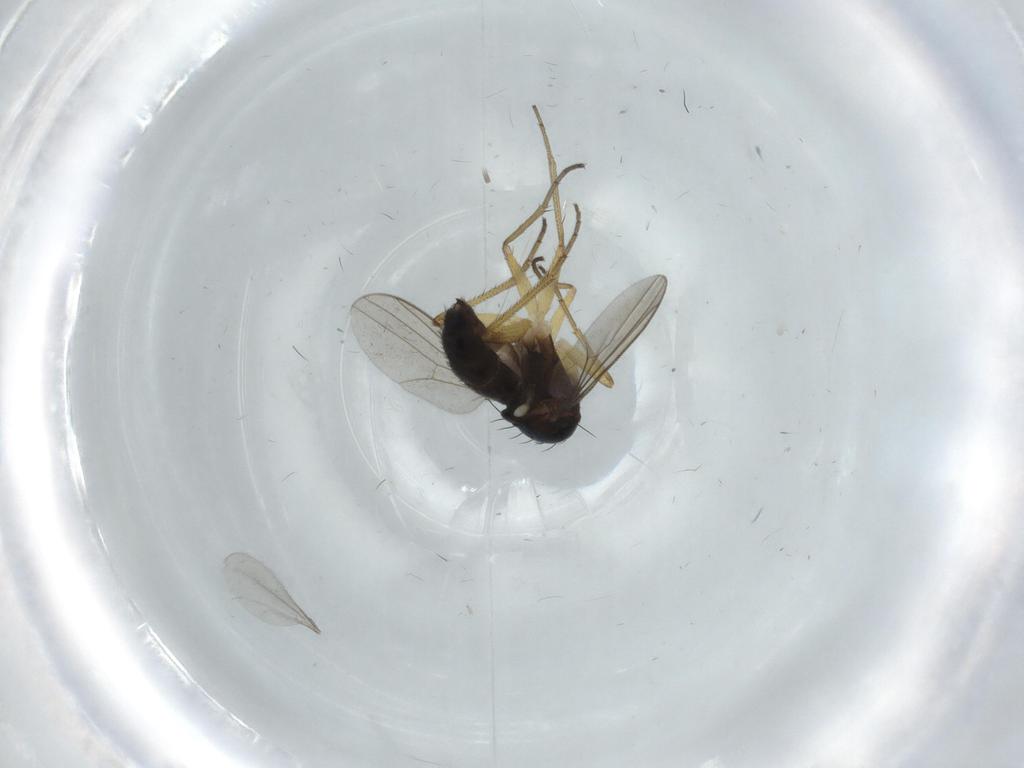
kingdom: Animalia
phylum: Arthropoda
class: Insecta
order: Diptera
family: Dolichopodidae
